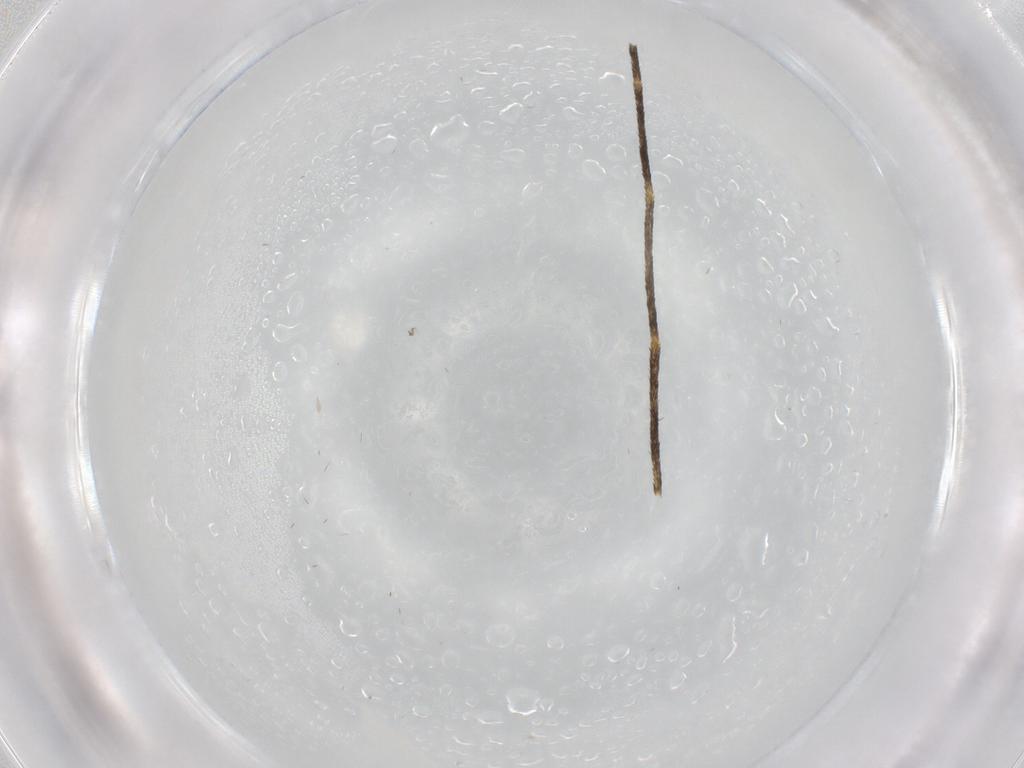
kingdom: Animalia
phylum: Arthropoda
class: Insecta
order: Diptera
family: Culicidae
